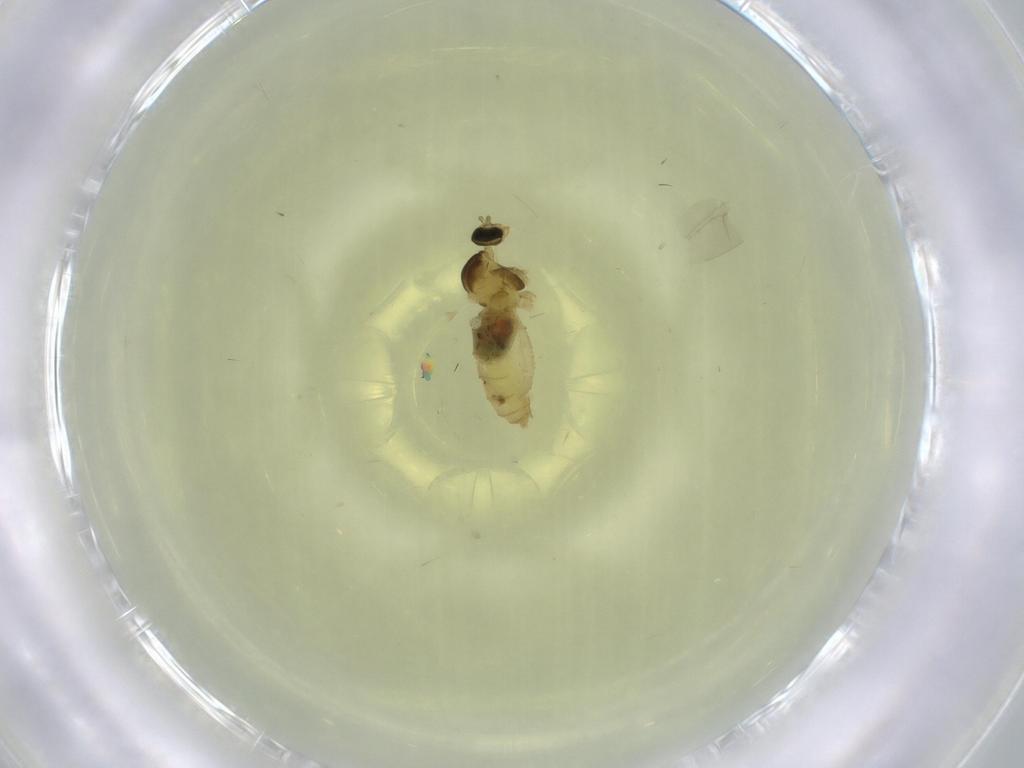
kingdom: Animalia
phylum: Arthropoda
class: Insecta
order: Diptera
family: Cecidomyiidae
